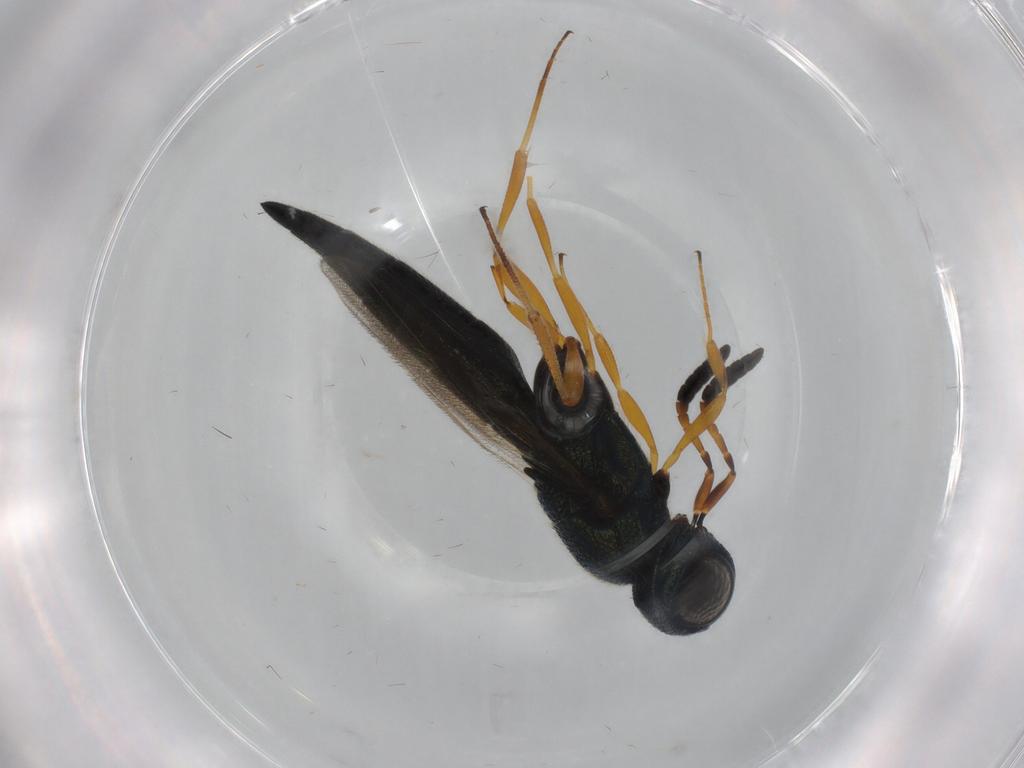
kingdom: Animalia
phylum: Arthropoda
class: Insecta
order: Hymenoptera
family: Scelionidae
